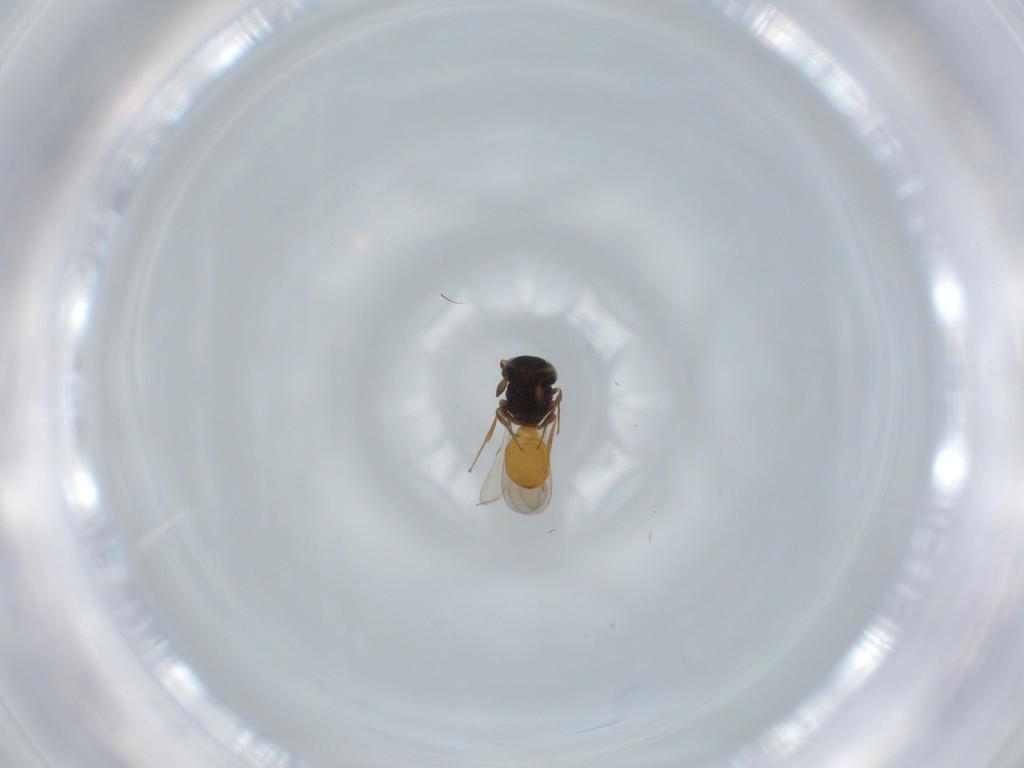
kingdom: Animalia
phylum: Arthropoda
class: Insecta
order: Hymenoptera
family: Scelionidae
